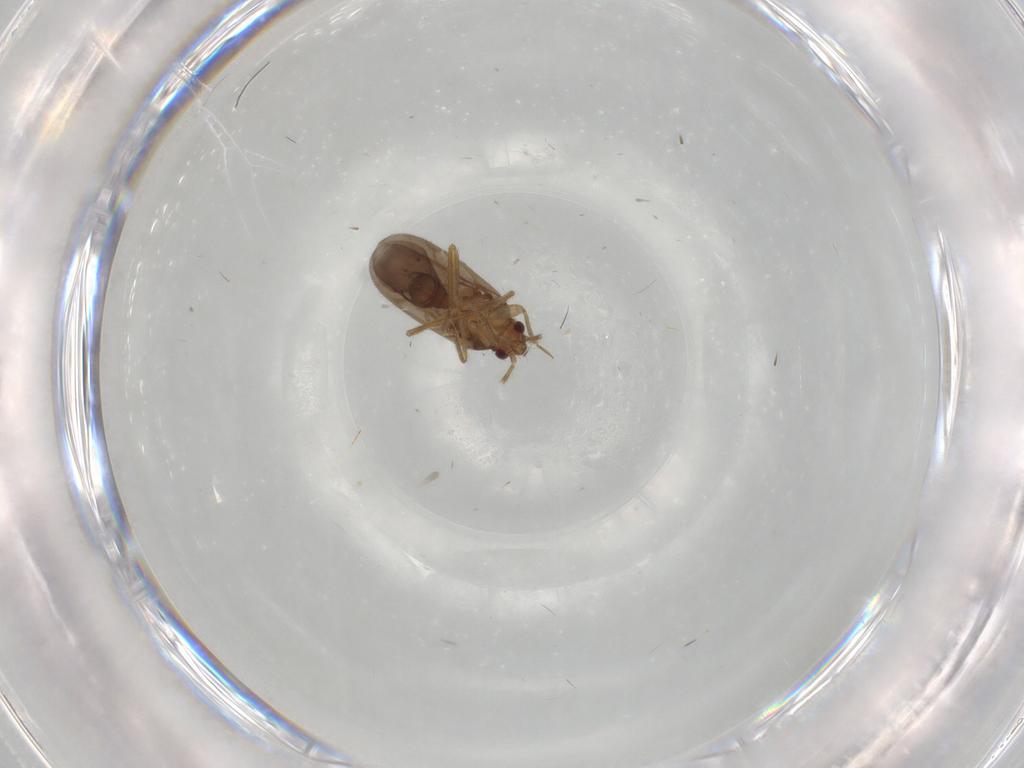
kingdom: Animalia
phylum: Arthropoda
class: Insecta
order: Hemiptera
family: Ceratocombidae
